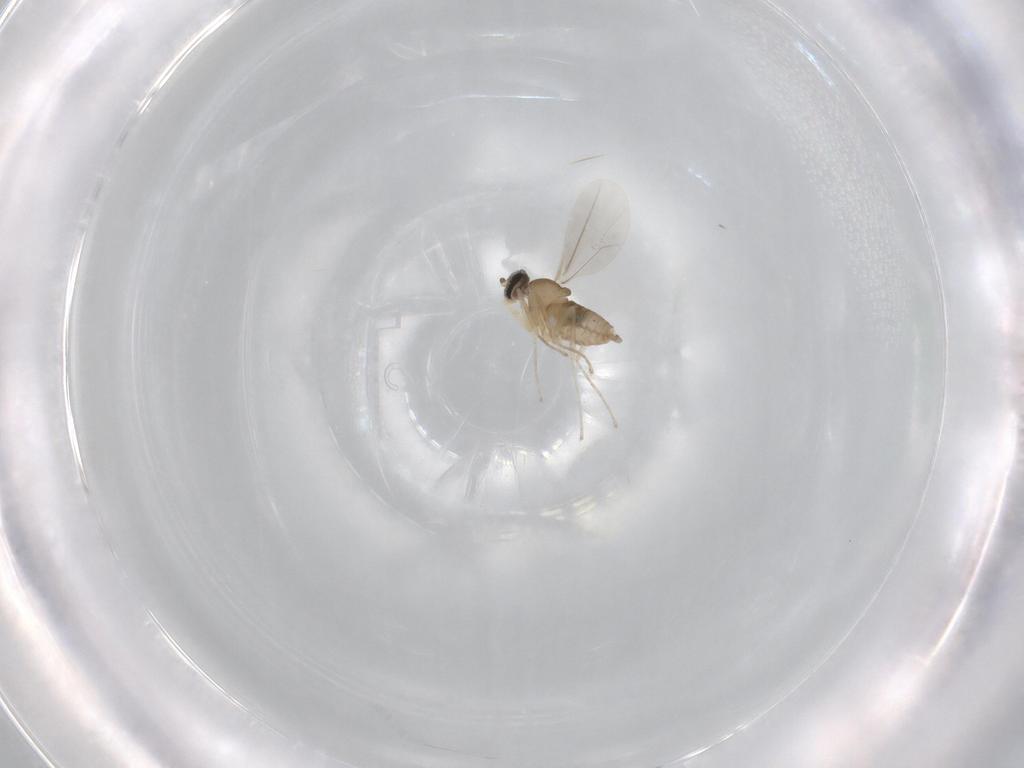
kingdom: Animalia
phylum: Arthropoda
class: Insecta
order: Diptera
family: Cecidomyiidae
